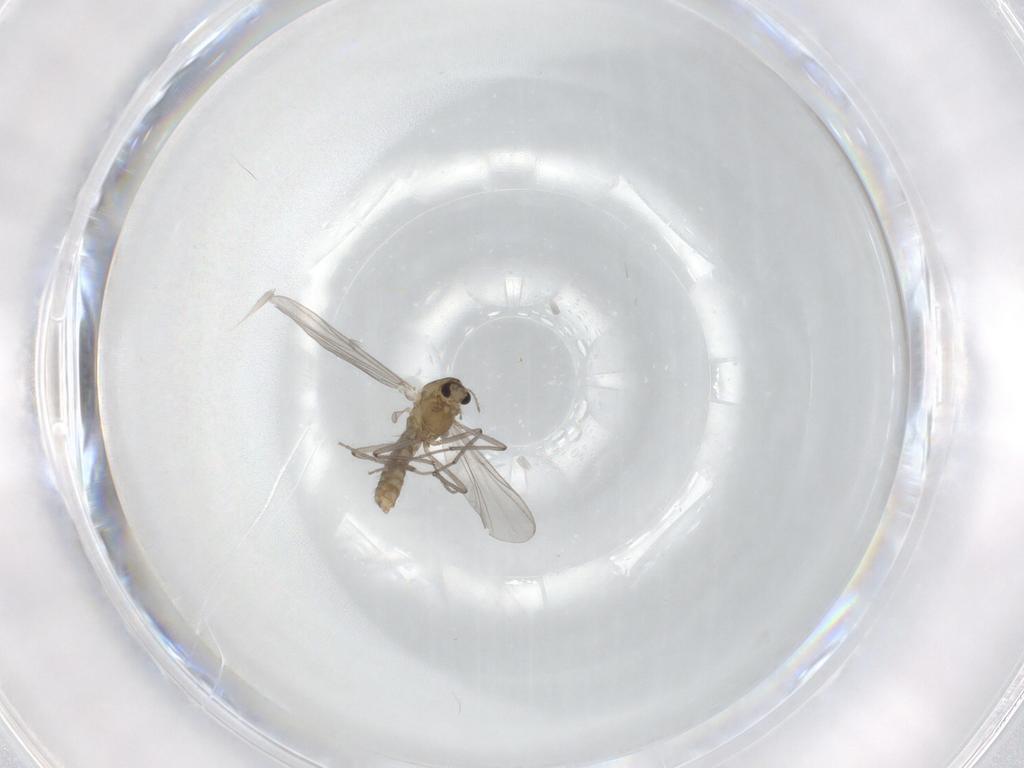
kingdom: Animalia
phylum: Arthropoda
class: Insecta
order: Diptera
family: Chironomidae
